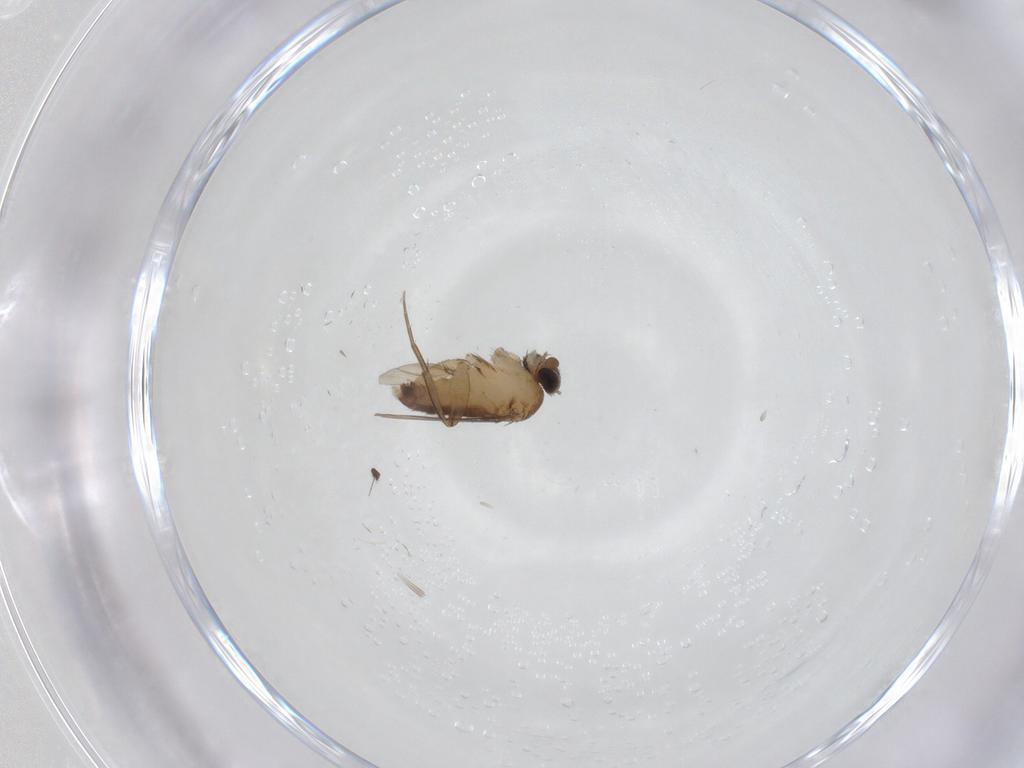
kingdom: Animalia
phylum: Arthropoda
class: Insecta
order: Diptera
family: Phoridae
